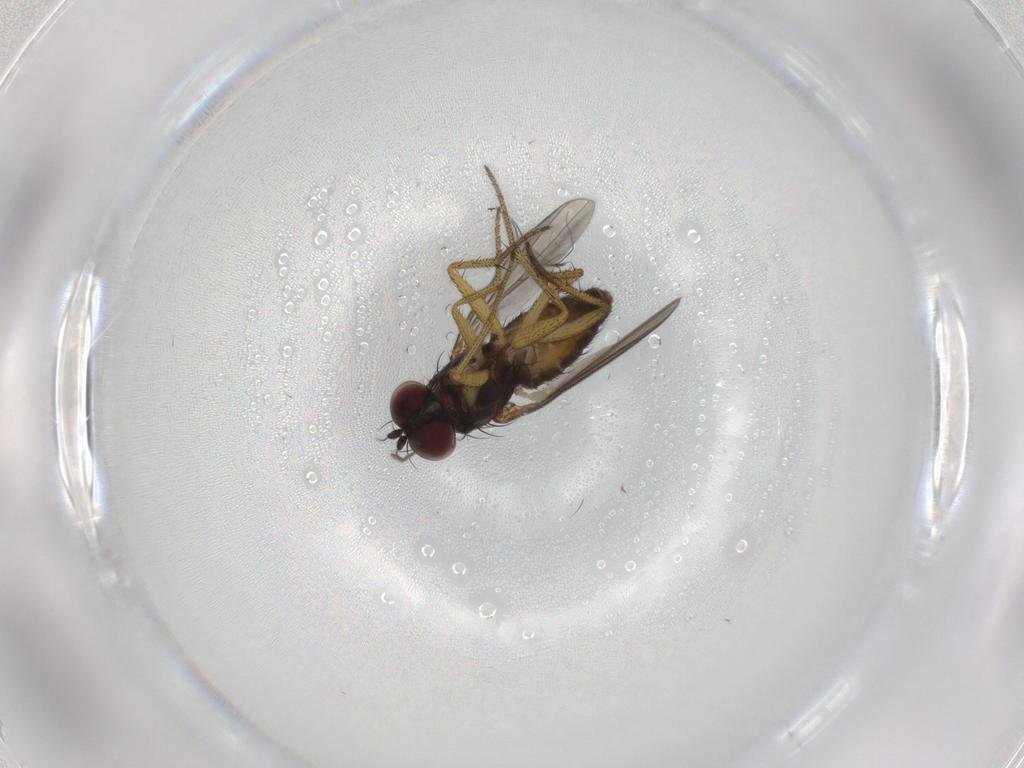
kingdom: Animalia
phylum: Arthropoda
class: Insecta
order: Diptera
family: Dolichopodidae
